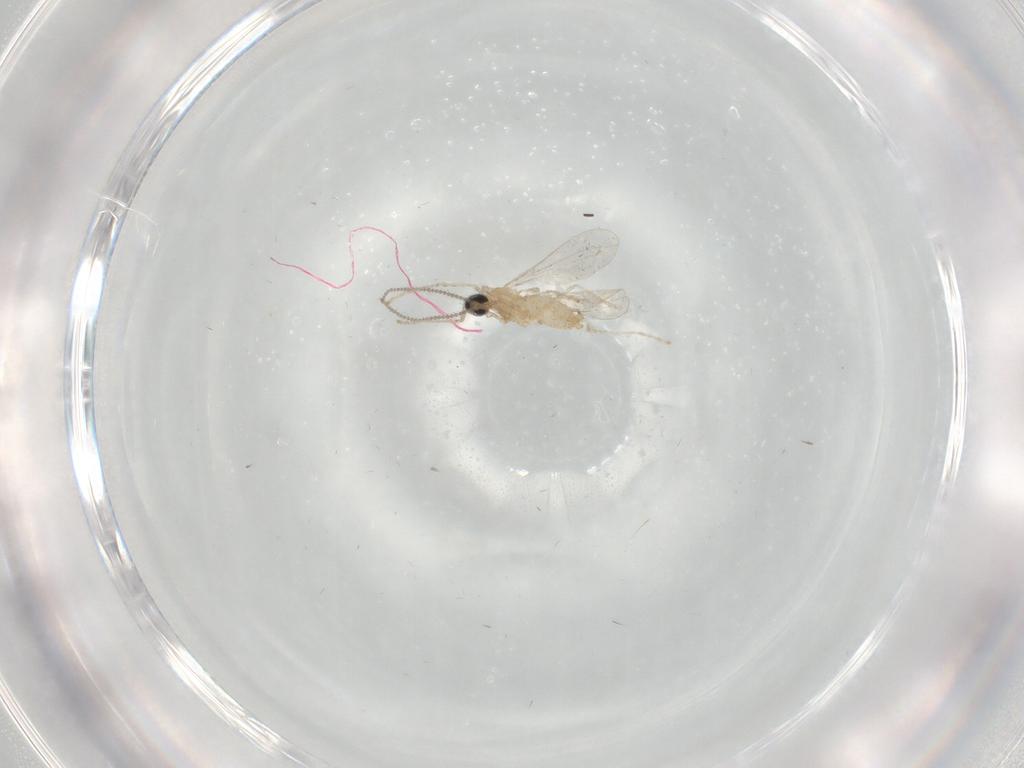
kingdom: Animalia
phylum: Arthropoda
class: Insecta
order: Diptera
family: Cecidomyiidae
